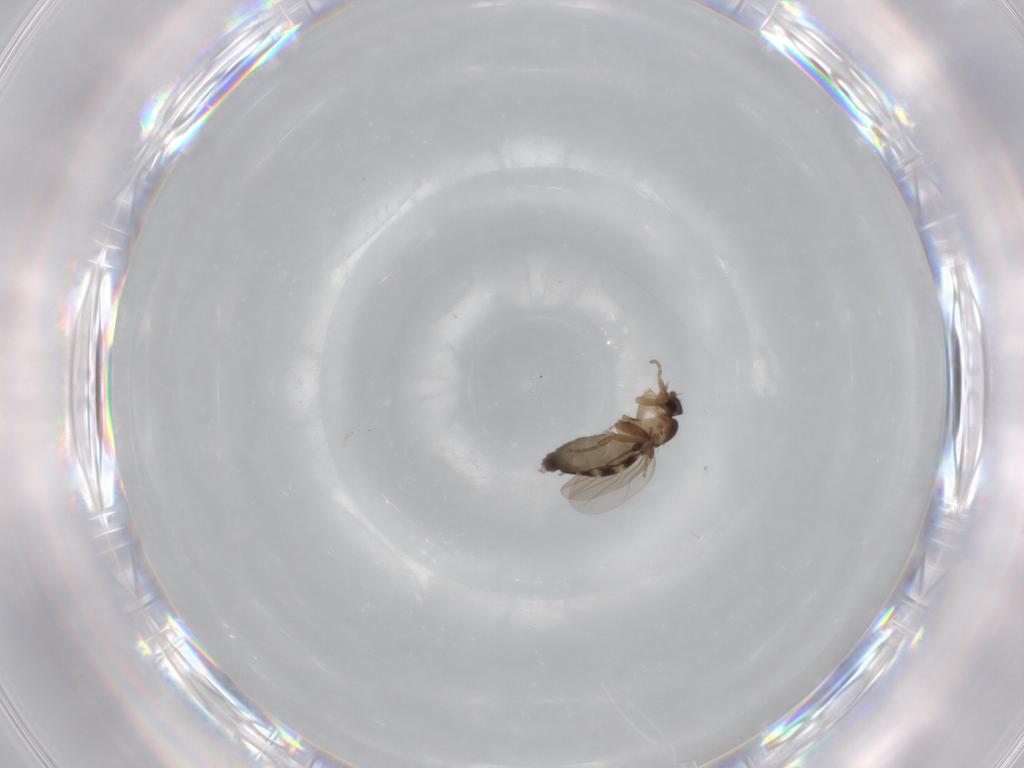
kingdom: Animalia
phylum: Arthropoda
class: Insecta
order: Diptera
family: Phoridae
